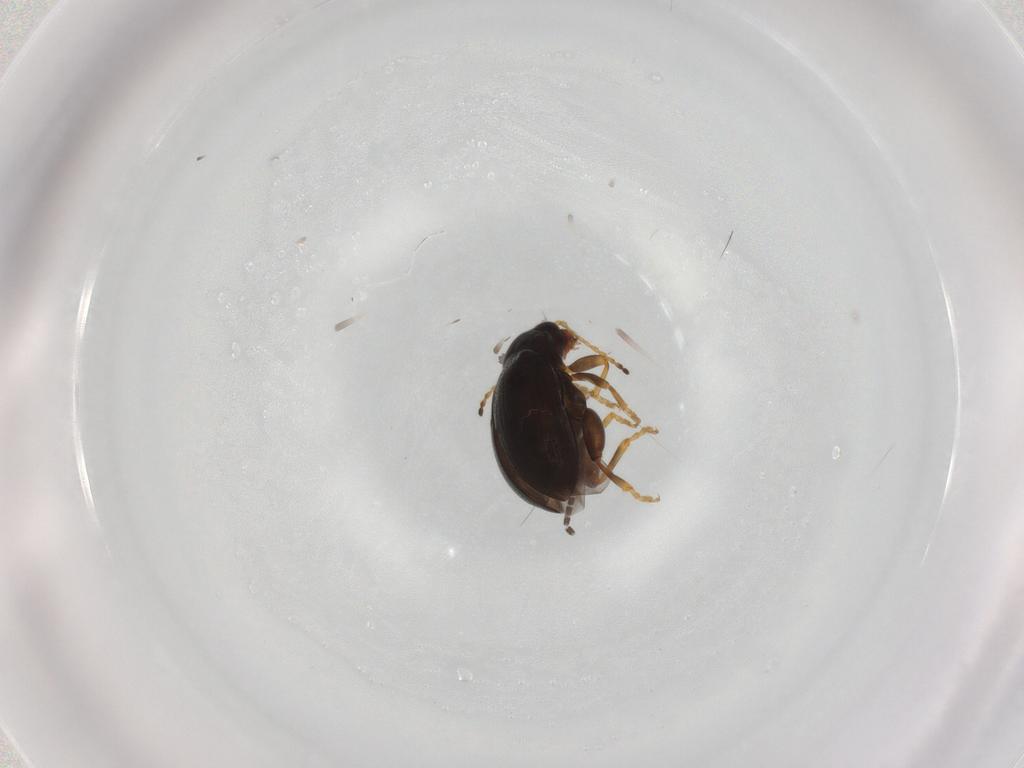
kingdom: Animalia
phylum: Arthropoda
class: Insecta
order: Coleoptera
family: Chrysomelidae
